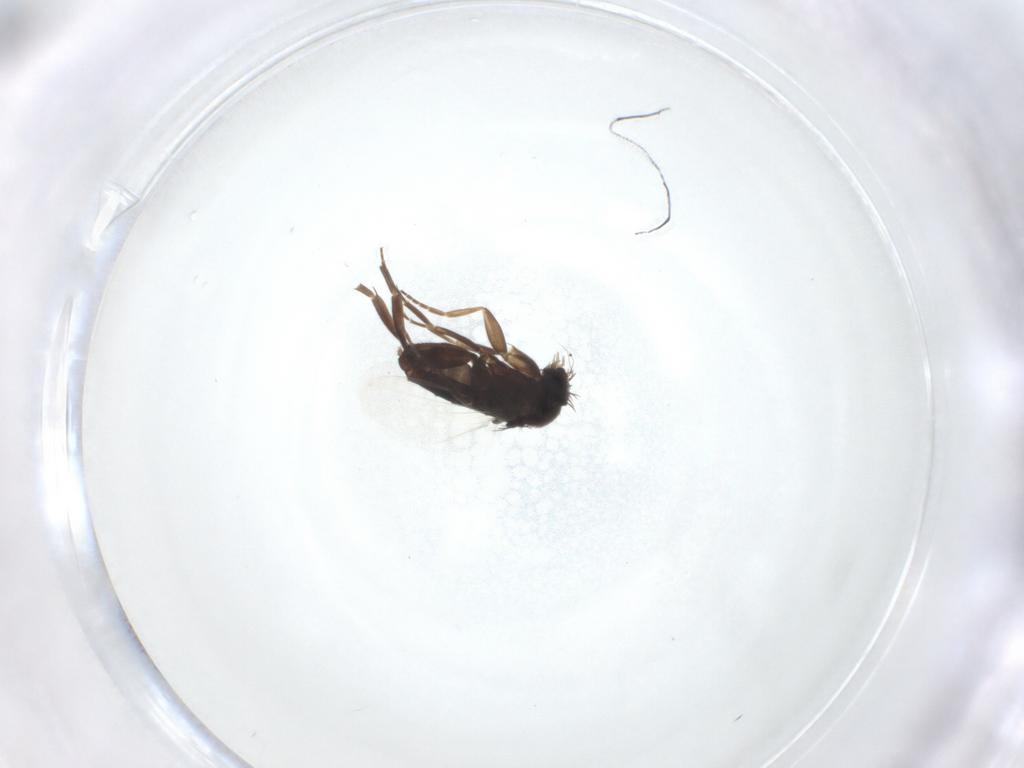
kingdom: Animalia
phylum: Arthropoda
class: Insecta
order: Diptera
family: Phoridae
